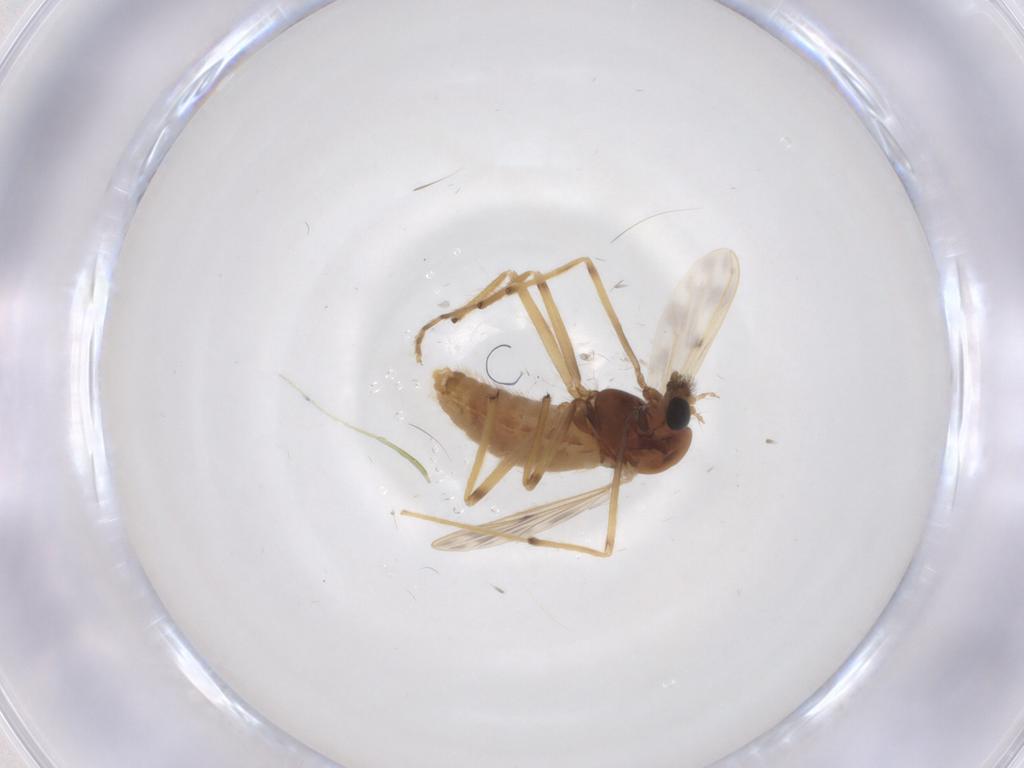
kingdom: Animalia
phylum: Arthropoda
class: Insecta
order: Diptera
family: Chironomidae
